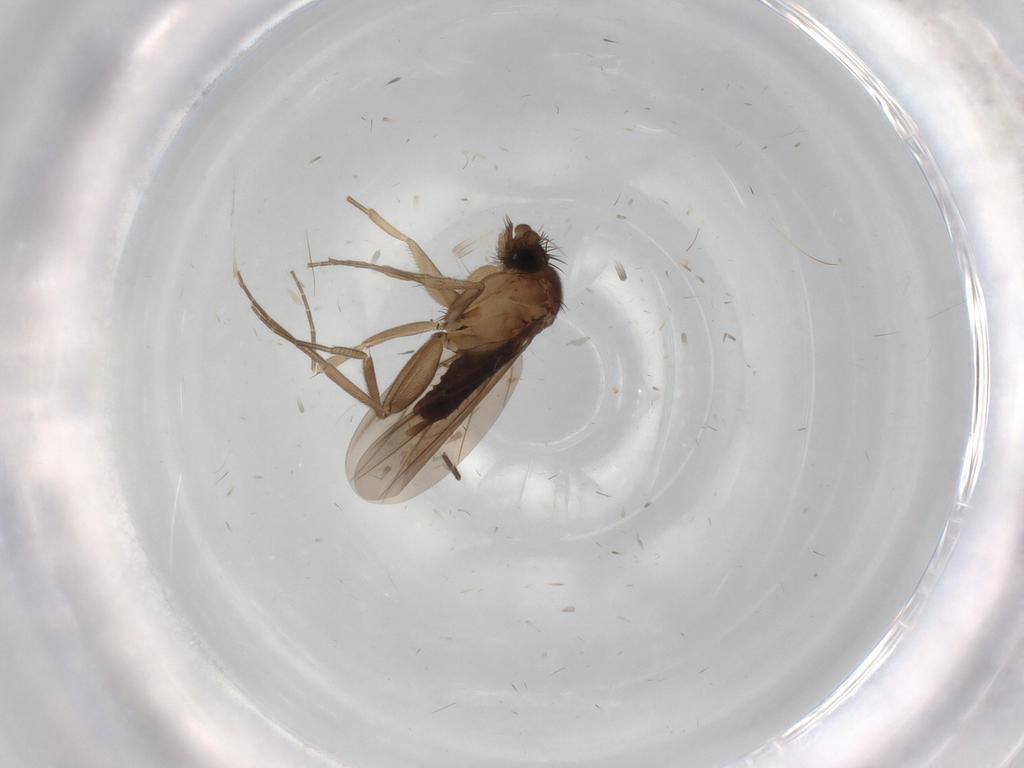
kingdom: Animalia
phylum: Arthropoda
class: Insecta
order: Diptera
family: Phoridae
